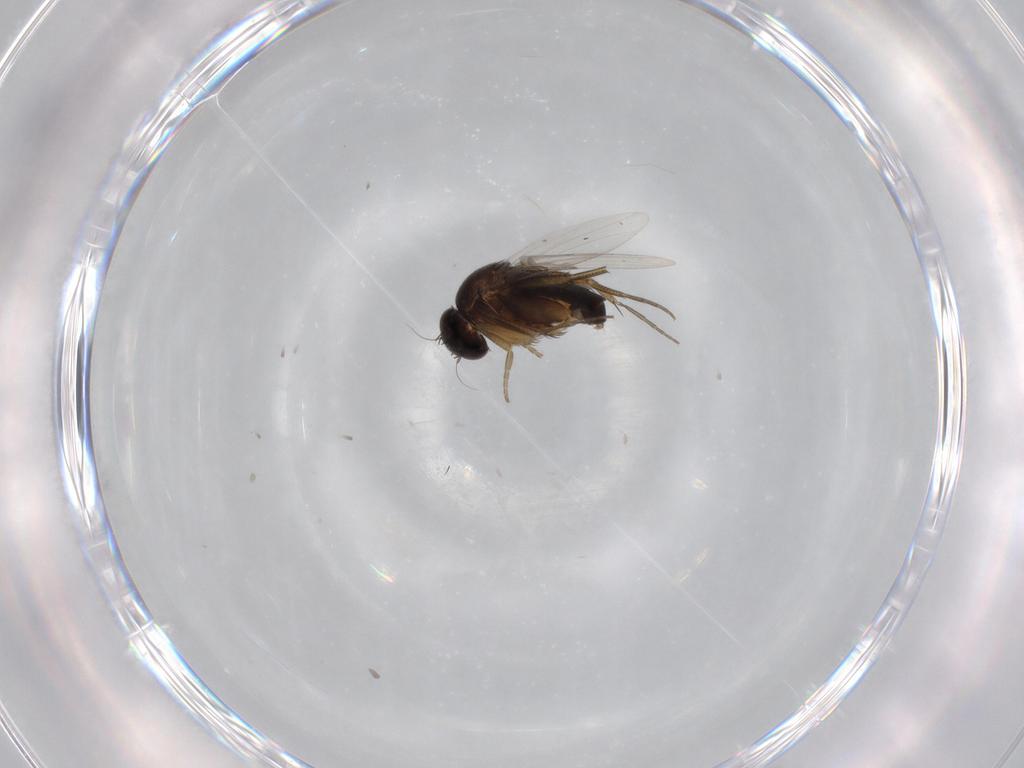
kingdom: Animalia
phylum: Arthropoda
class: Insecta
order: Diptera
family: Phoridae
